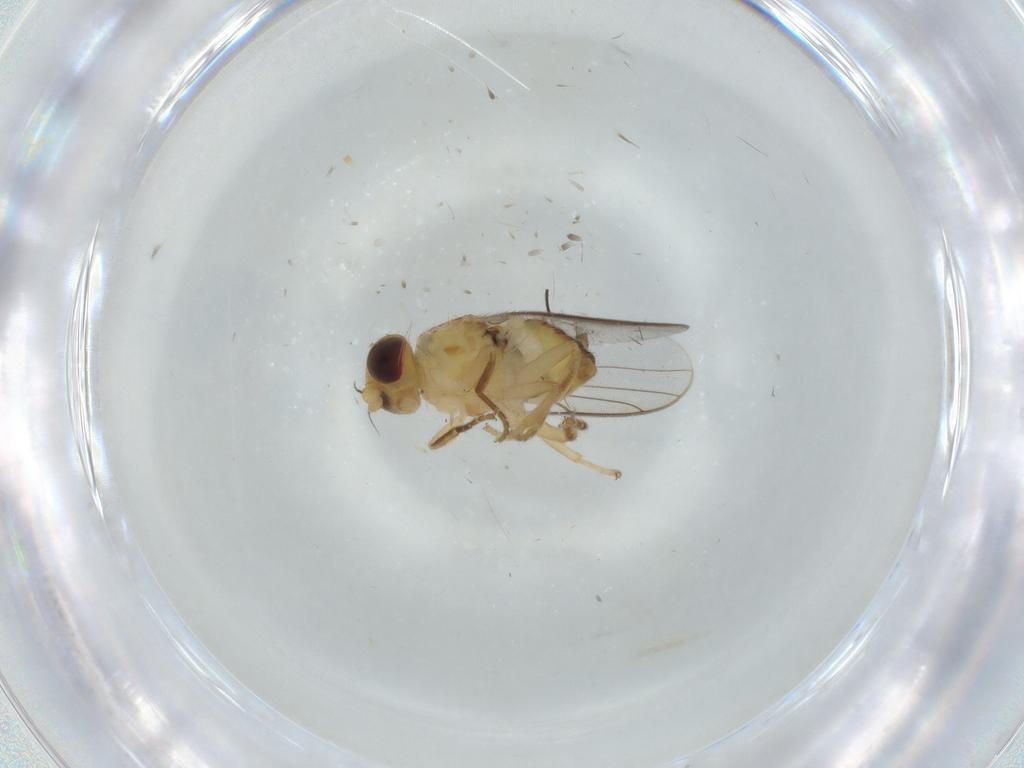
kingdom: Animalia
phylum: Arthropoda
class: Insecta
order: Diptera
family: Chloropidae
